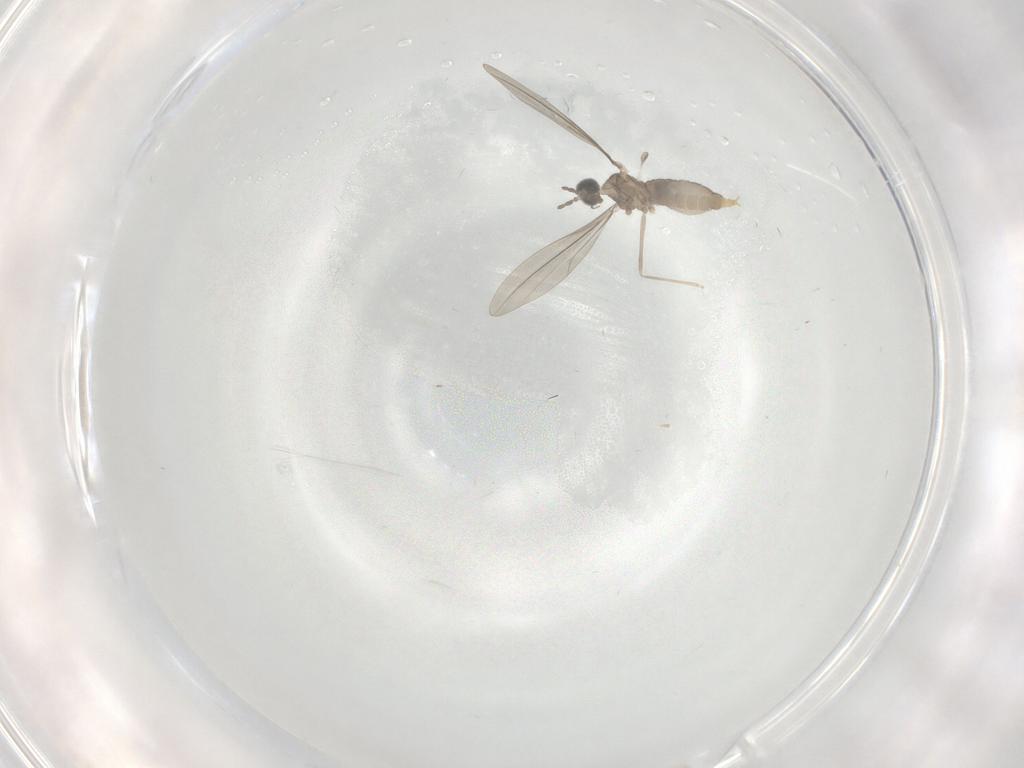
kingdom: Animalia
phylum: Arthropoda
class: Insecta
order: Diptera
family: Cecidomyiidae
